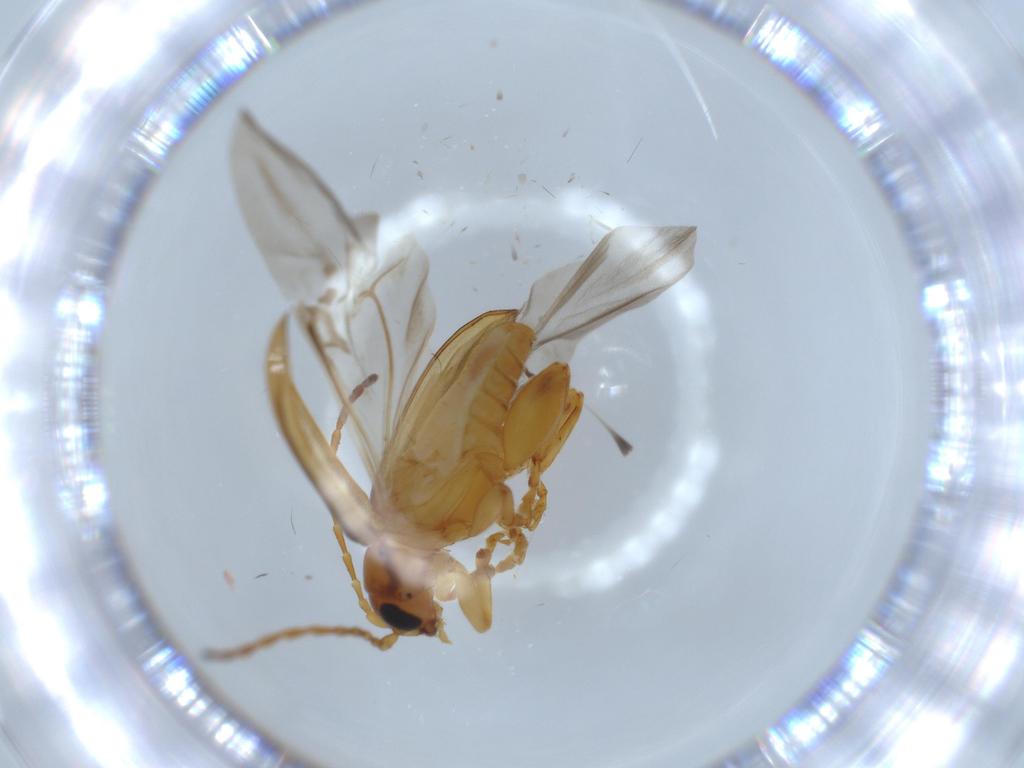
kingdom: Animalia
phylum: Arthropoda
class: Insecta
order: Coleoptera
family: Chrysomelidae
